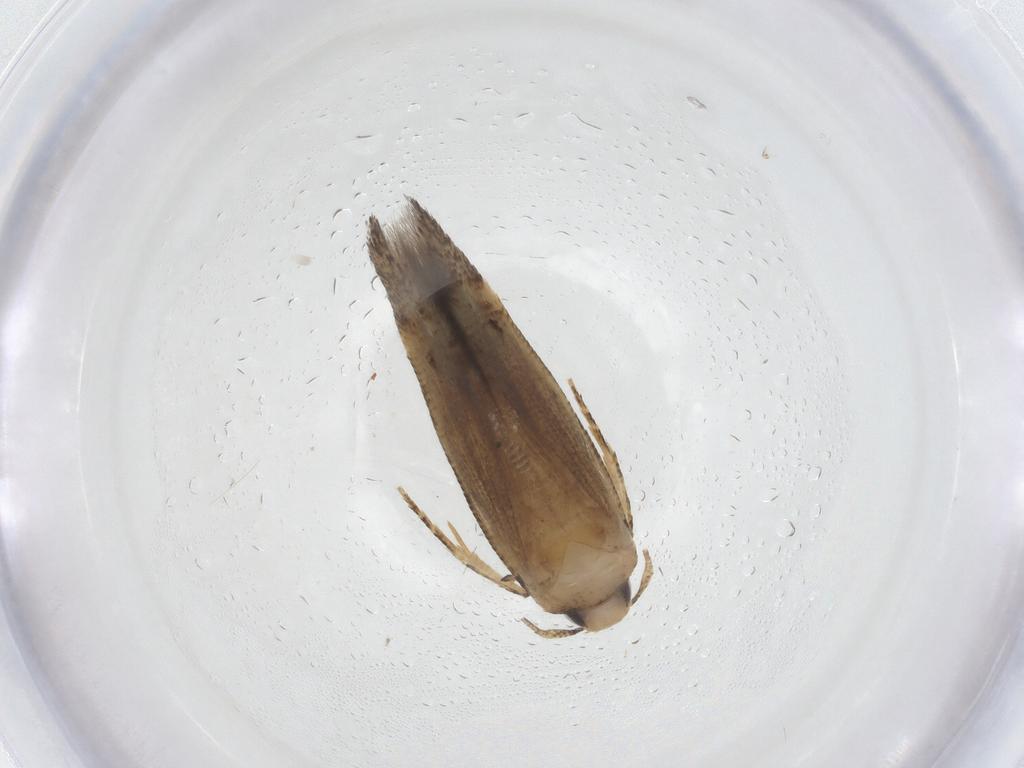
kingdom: Animalia
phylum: Arthropoda
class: Insecta
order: Lepidoptera
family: Gelechiidae
